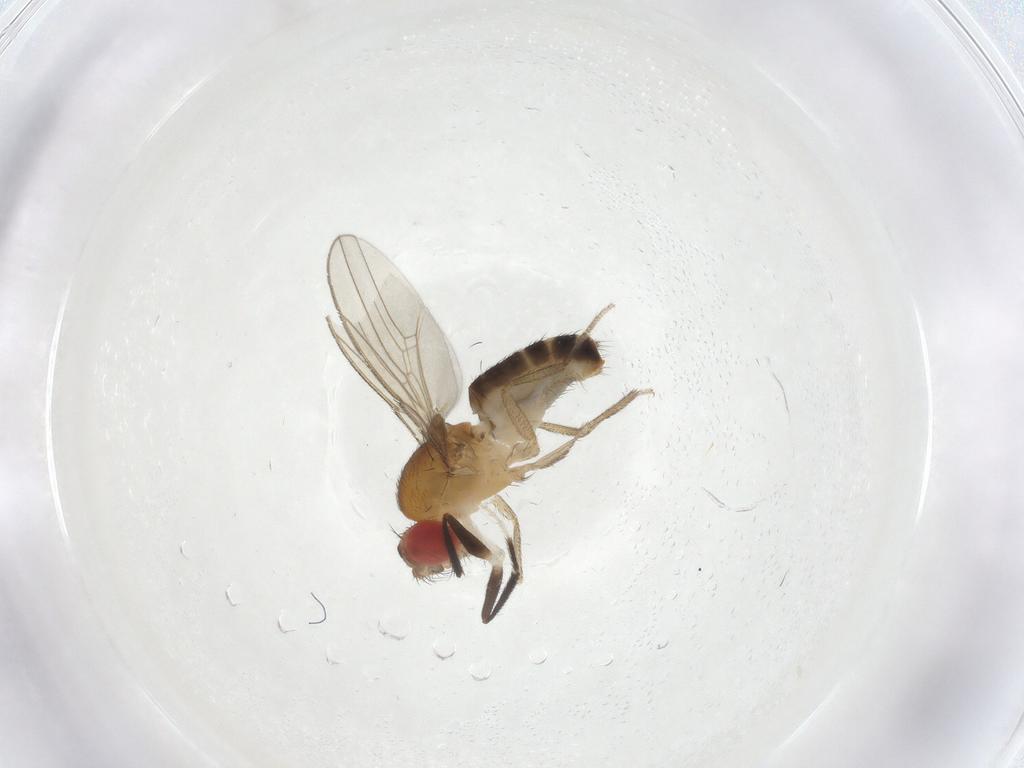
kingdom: Animalia
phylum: Arthropoda
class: Insecta
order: Diptera
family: Drosophilidae
